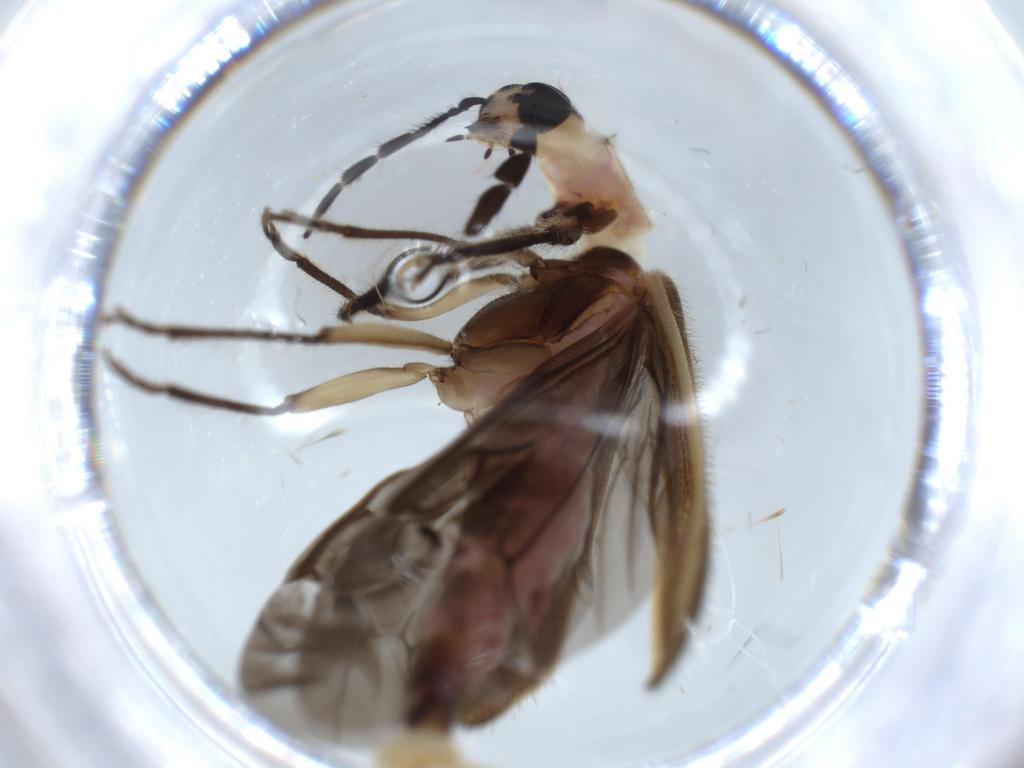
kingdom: Animalia
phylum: Arthropoda
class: Insecta
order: Coleoptera
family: Cleridae
